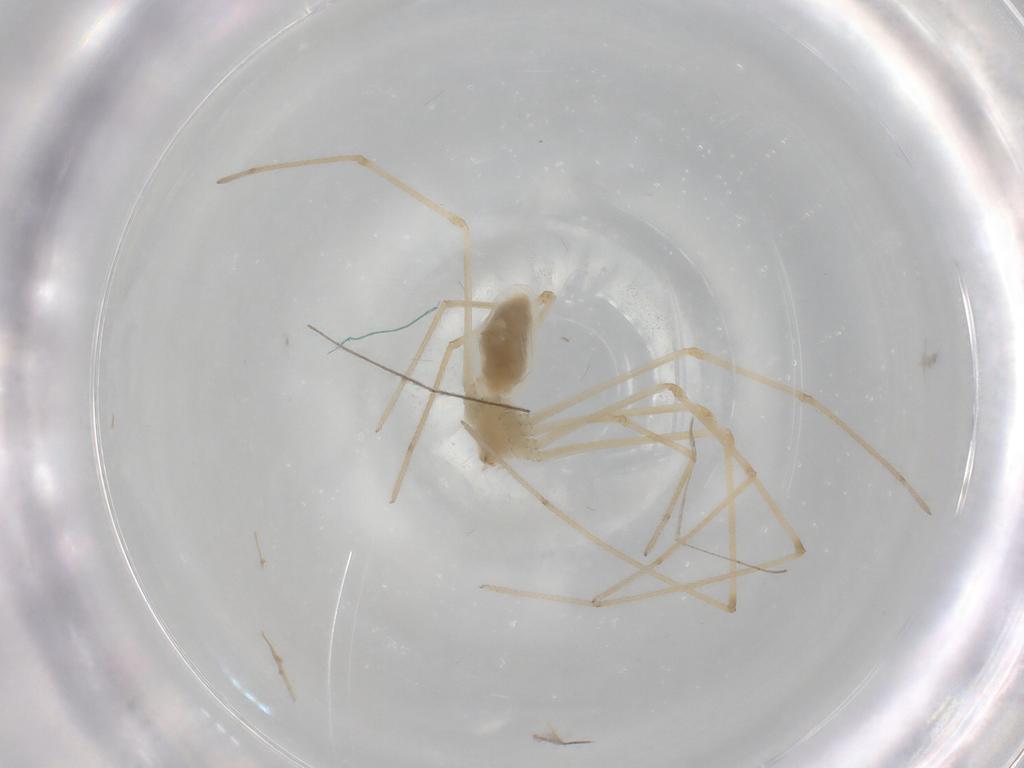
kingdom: Animalia
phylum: Arthropoda
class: Arachnida
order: Araneae
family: Pholcidae
